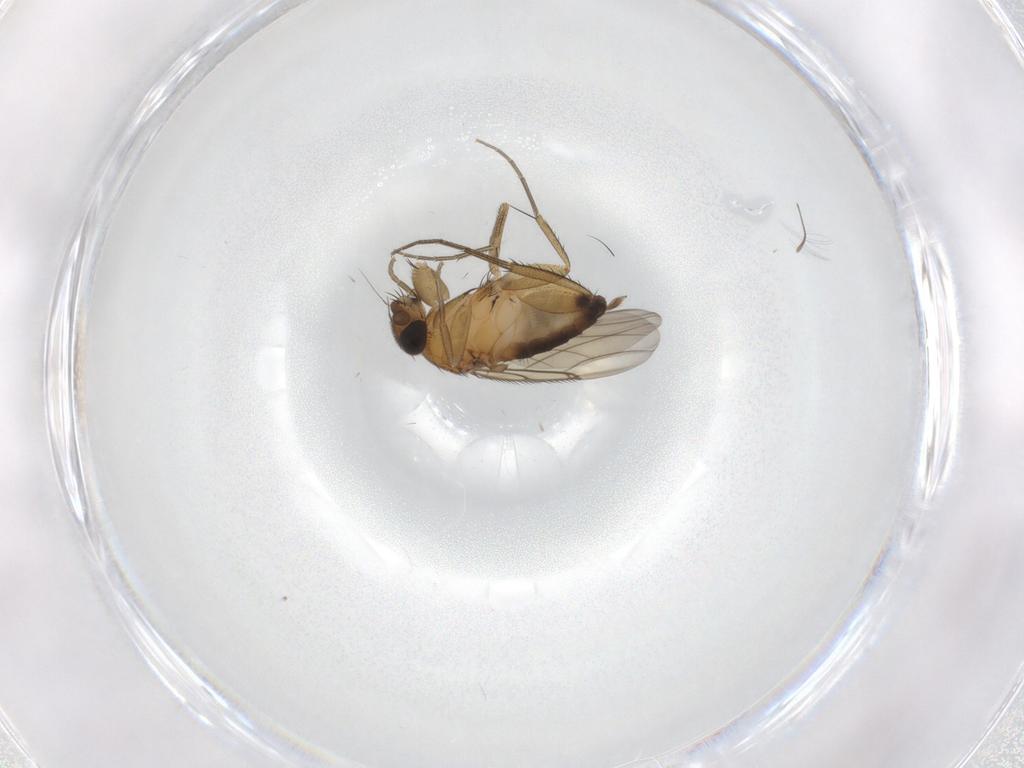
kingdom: Animalia
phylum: Arthropoda
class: Insecta
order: Diptera
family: Phoridae
